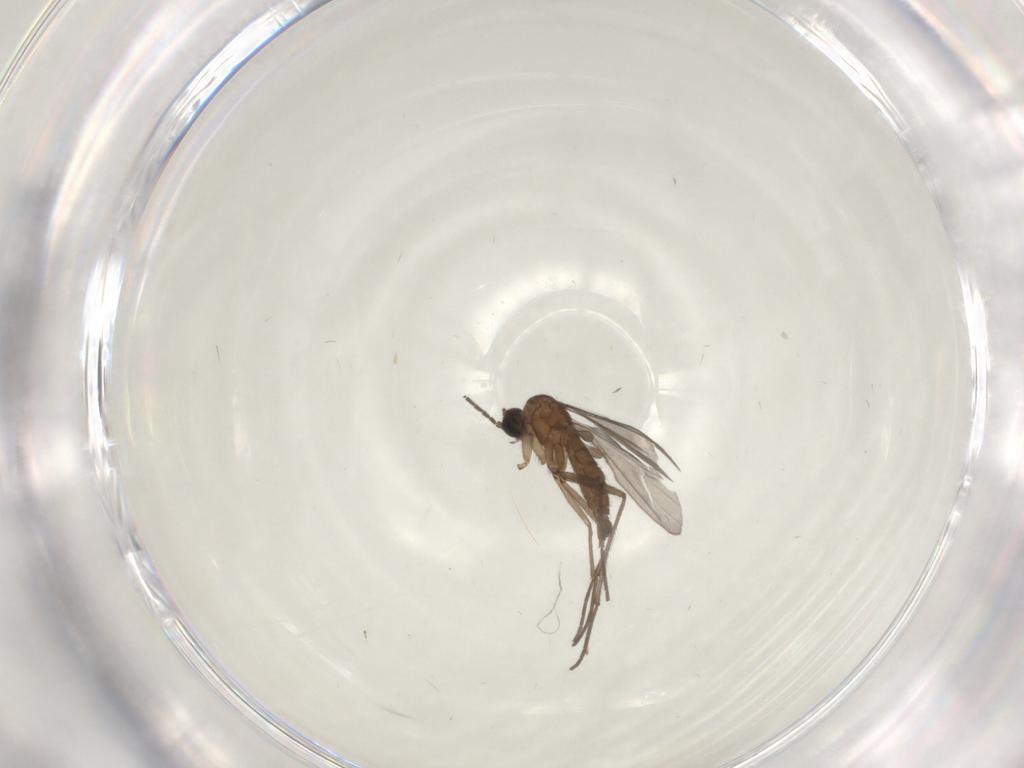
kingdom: Animalia
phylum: Arthropoda
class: Insecta
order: Diptera
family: Sciaridae
